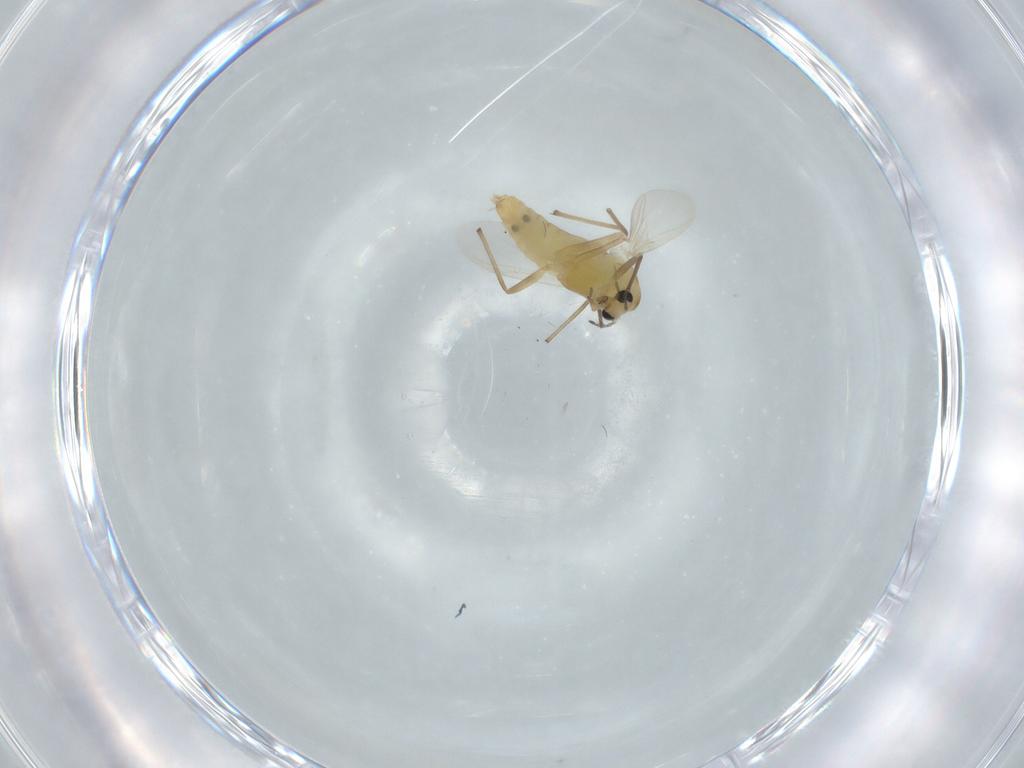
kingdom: Animalia
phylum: Arthropoda
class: Insecta
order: Diptera
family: Chironomidae
